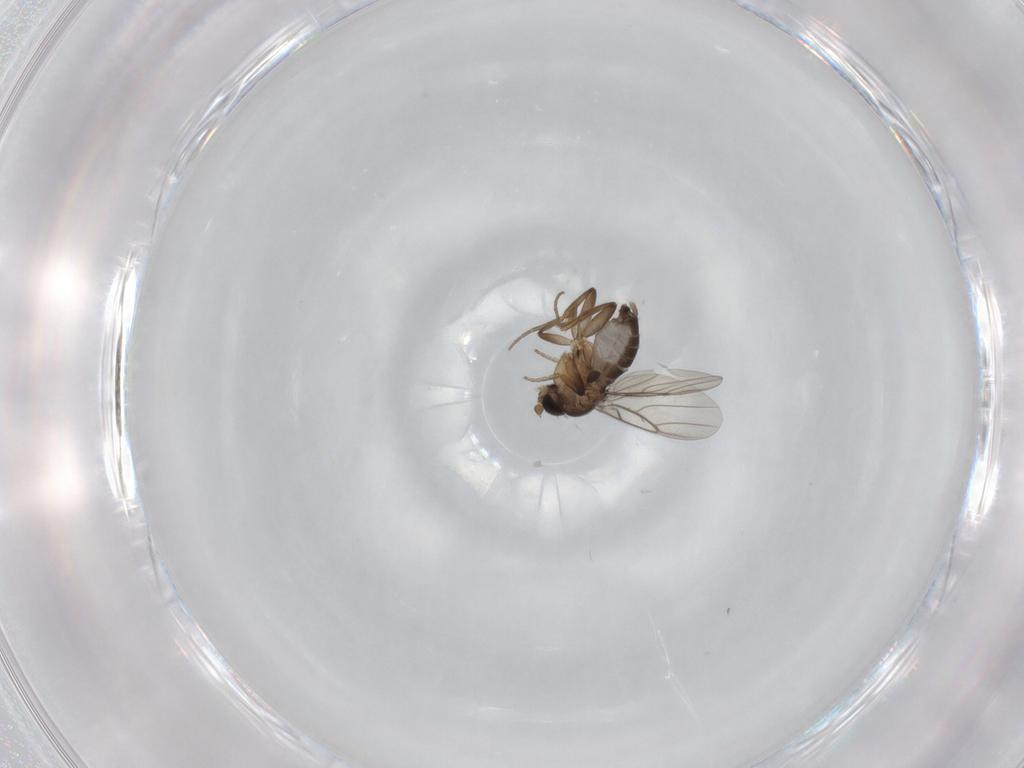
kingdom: Animalia
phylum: Arthropoda
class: Insecta
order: Diptera
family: Phoridae
